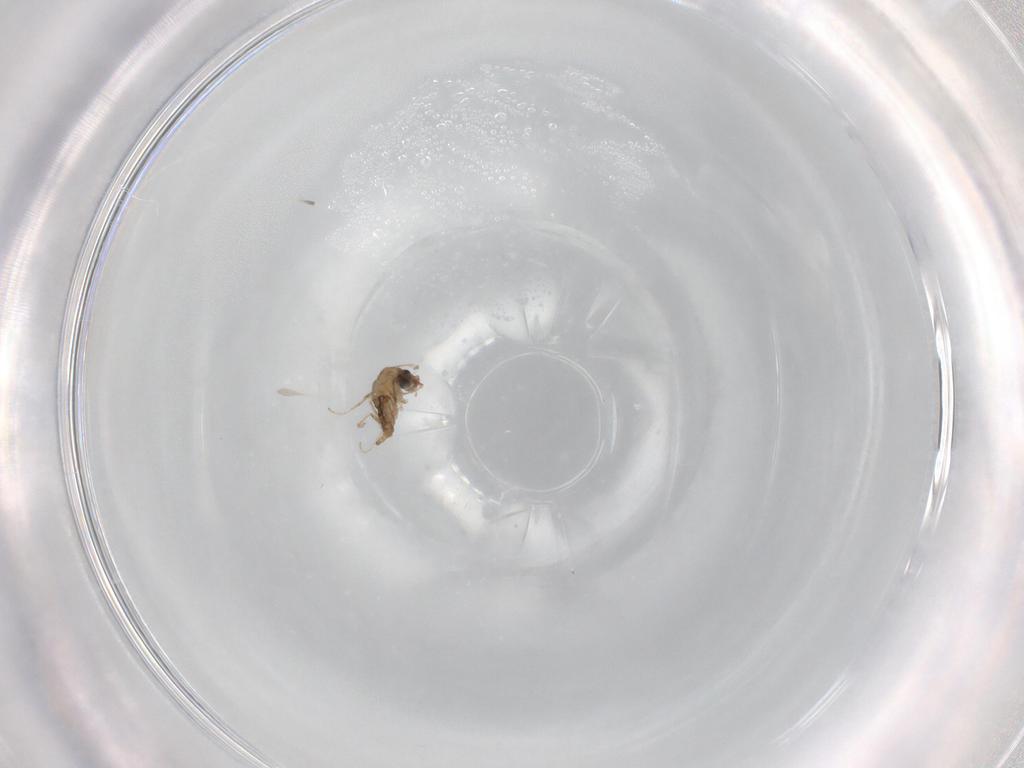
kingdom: Animalia
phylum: Arthropoda
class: Insecta
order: Diptera
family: Cecidomyiidae
